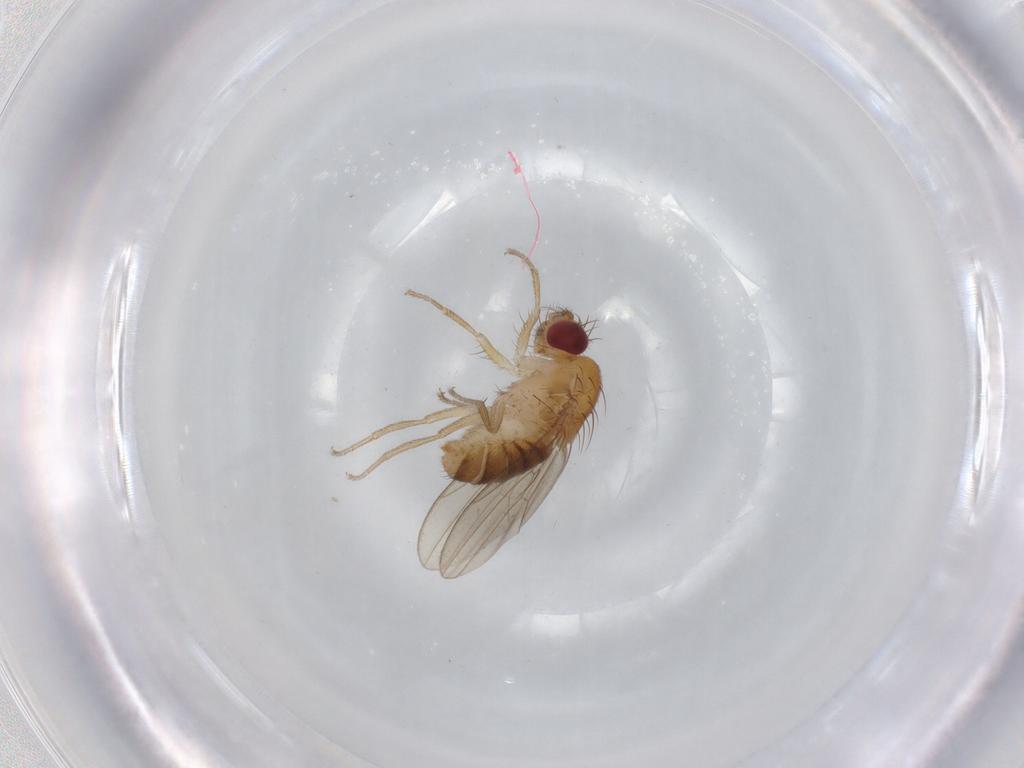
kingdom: Animalia
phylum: Arthropoda
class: Insecta
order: Diptera
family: Drosophilidae
